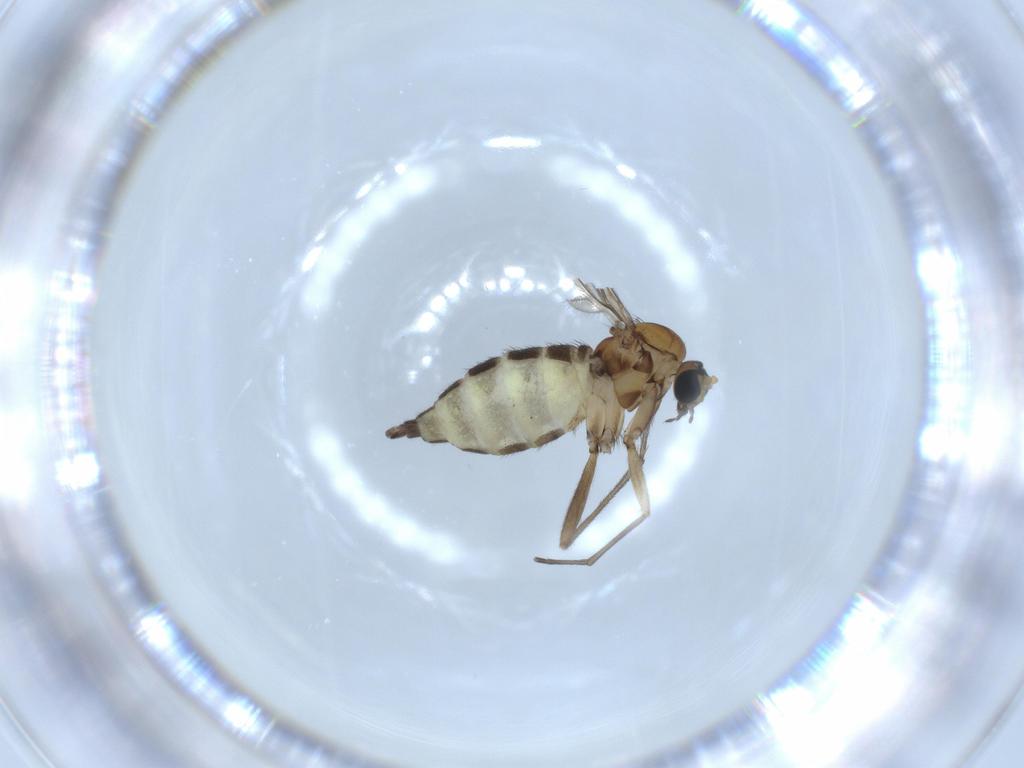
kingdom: Animalia
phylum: Arthropoda
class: Insecta
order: Diptera
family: Sciaridae
